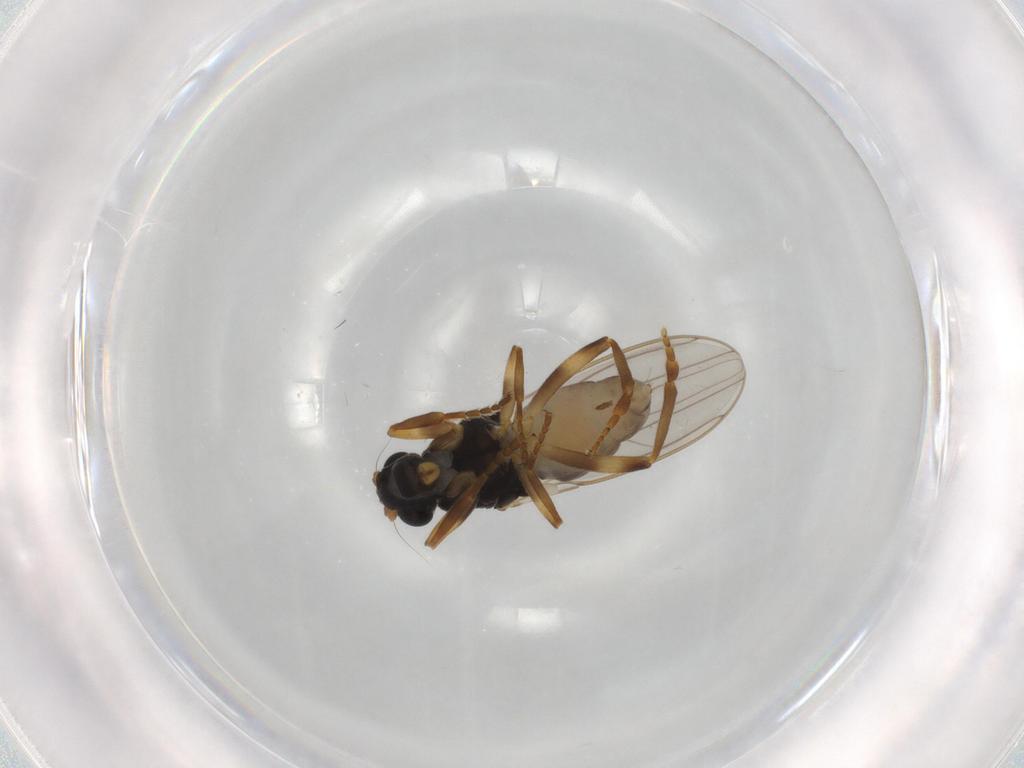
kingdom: Animalia
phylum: Arthropoda
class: Insecta
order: Diptera
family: Sphaeroceridae
